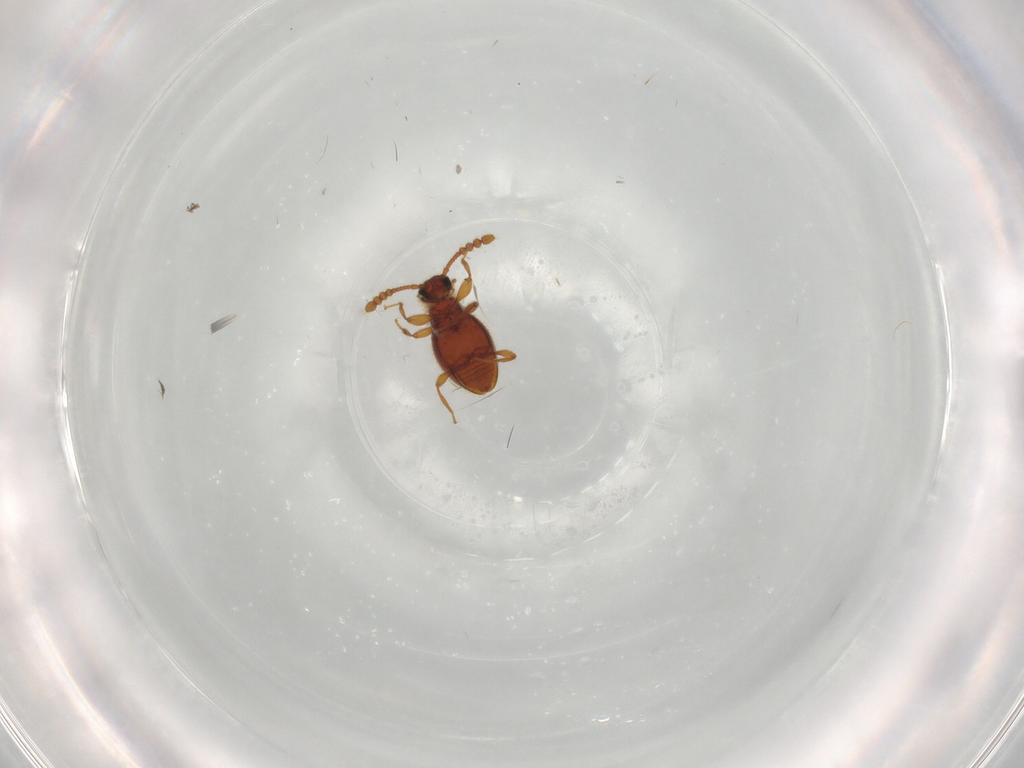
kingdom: Animalia
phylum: Arthropoda
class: Insecta
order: Coleoptera
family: Staphylinidae
